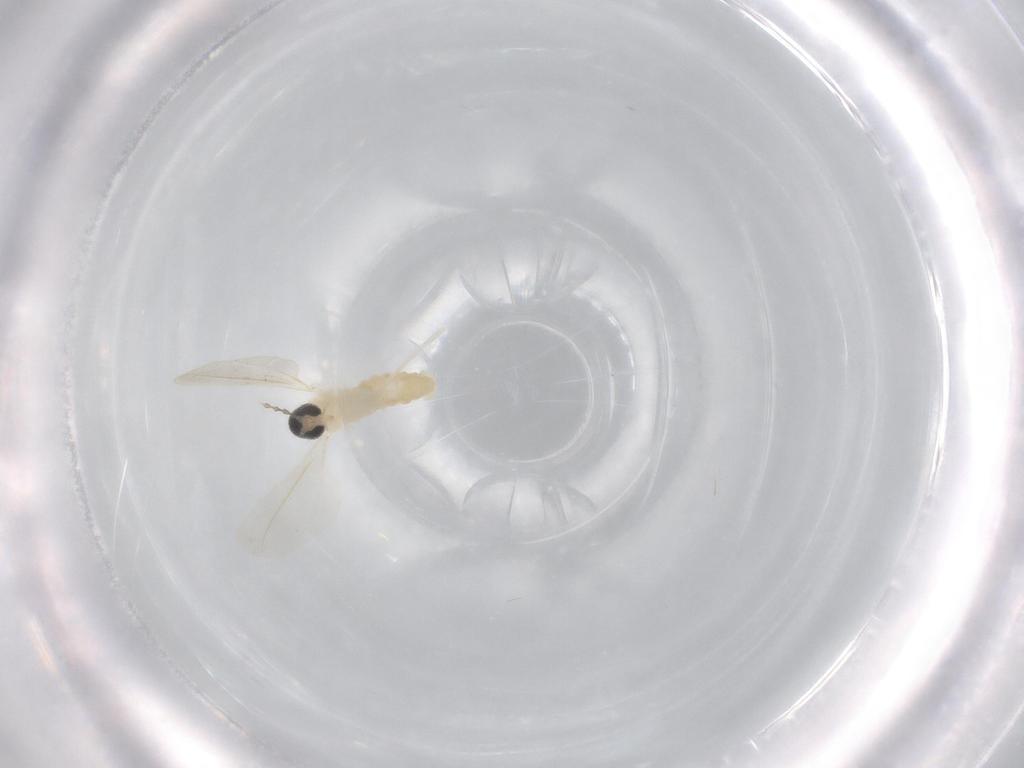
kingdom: Animalia
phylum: Arthropoda
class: Insecta
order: Diptera
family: Cecidomyiidae
